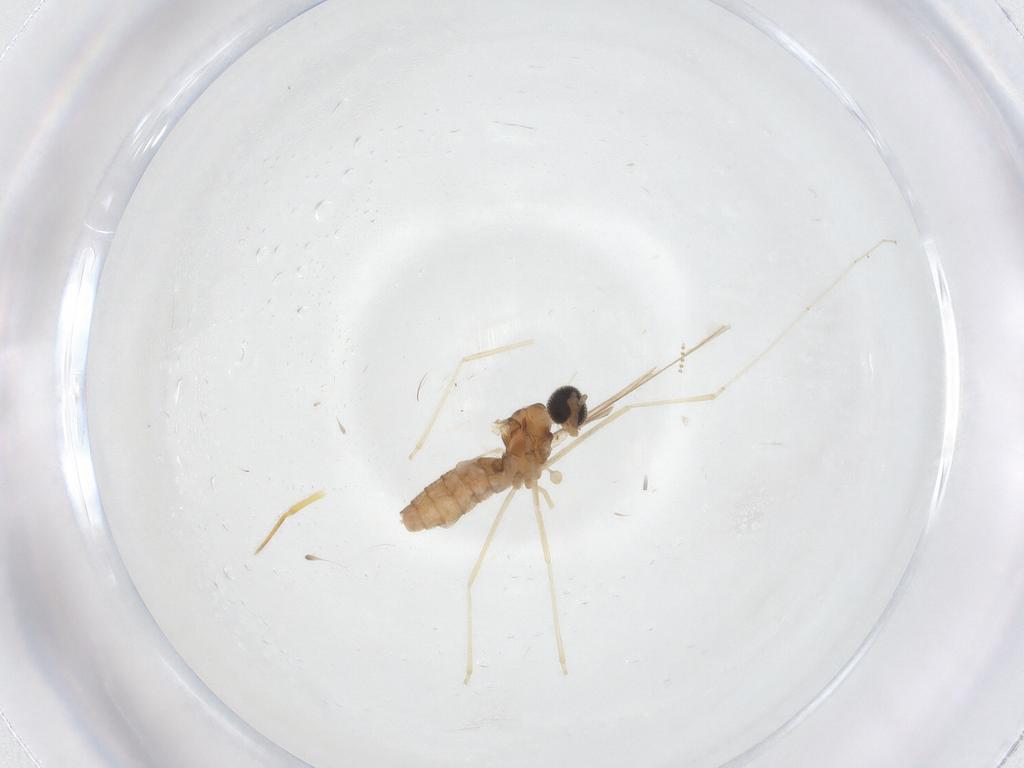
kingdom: Animalia
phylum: Arthropoda
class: Insecta
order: Diptera
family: Cecidomyiidae
